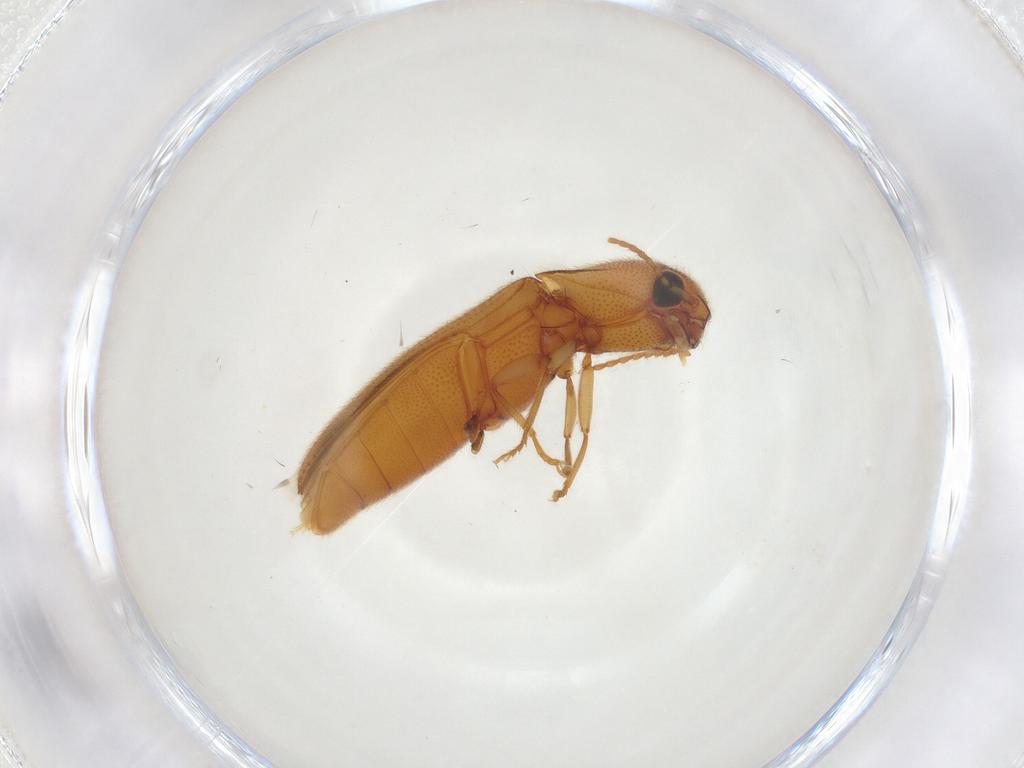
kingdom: Animalia
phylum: Arthropoda
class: Insecta
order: Coleoptera
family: Elateridae
